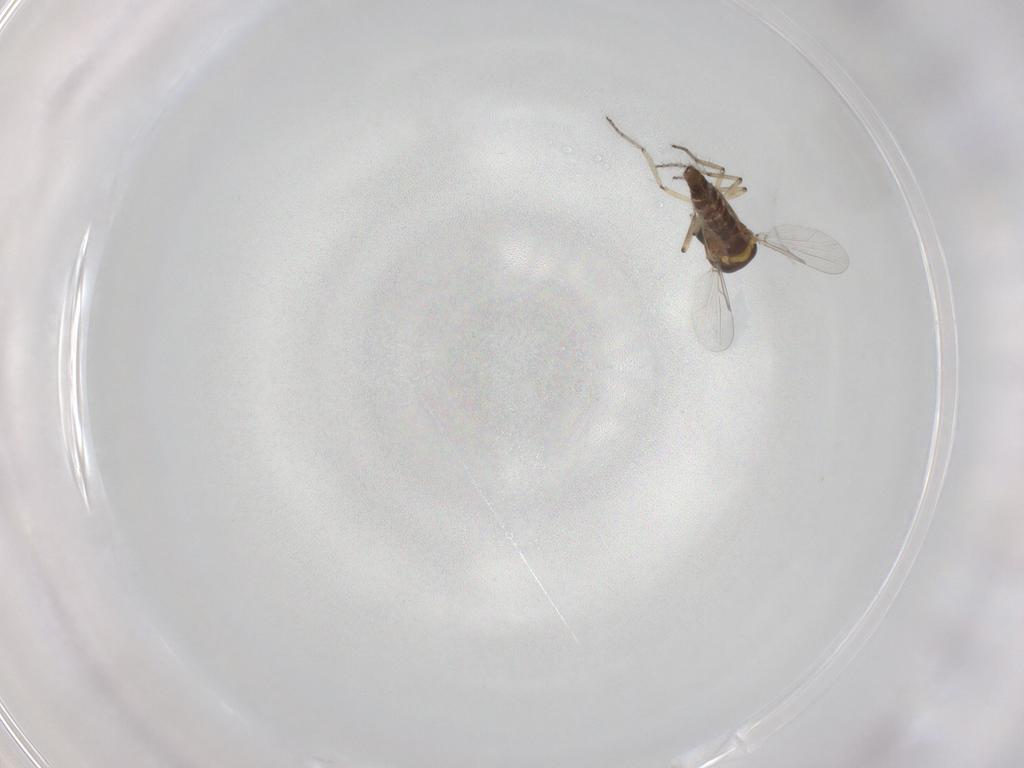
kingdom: Animalia
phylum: Arthropoda
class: Insecta
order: Diptera
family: Ceratopogonidae
